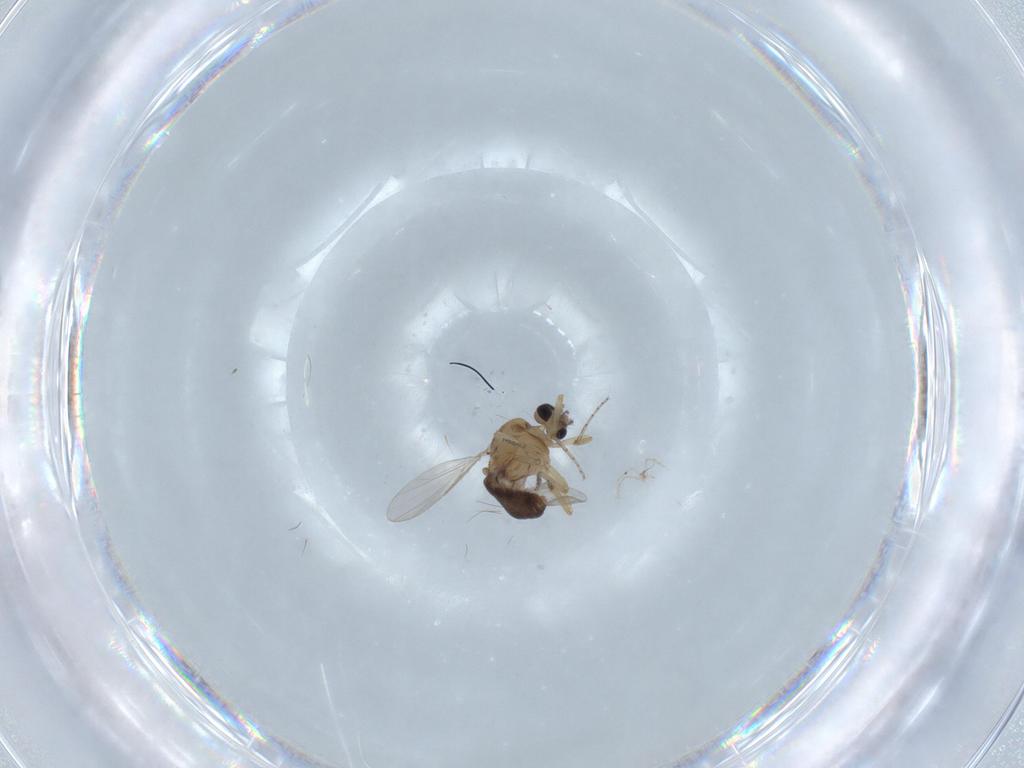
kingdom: Animalia
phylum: Arthropoda
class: Insecta
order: Diptera
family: Ceratopogonidae
